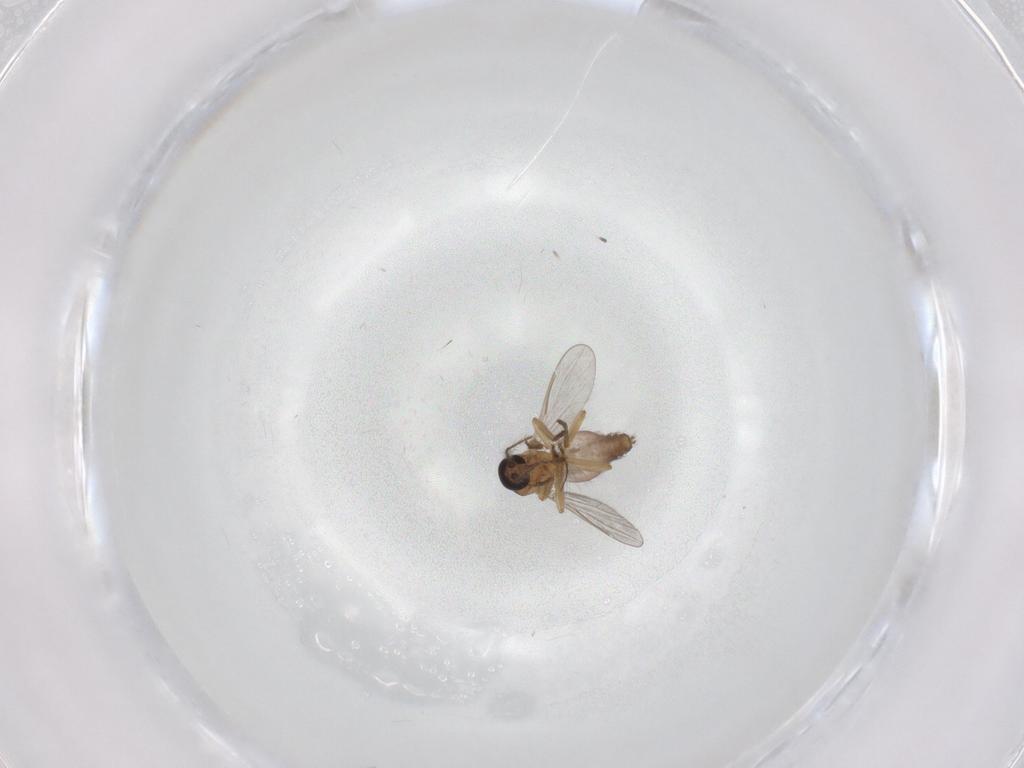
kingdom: Animalia
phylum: Arthropoda
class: Insecta
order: Diptera
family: Ceratopogonidae
